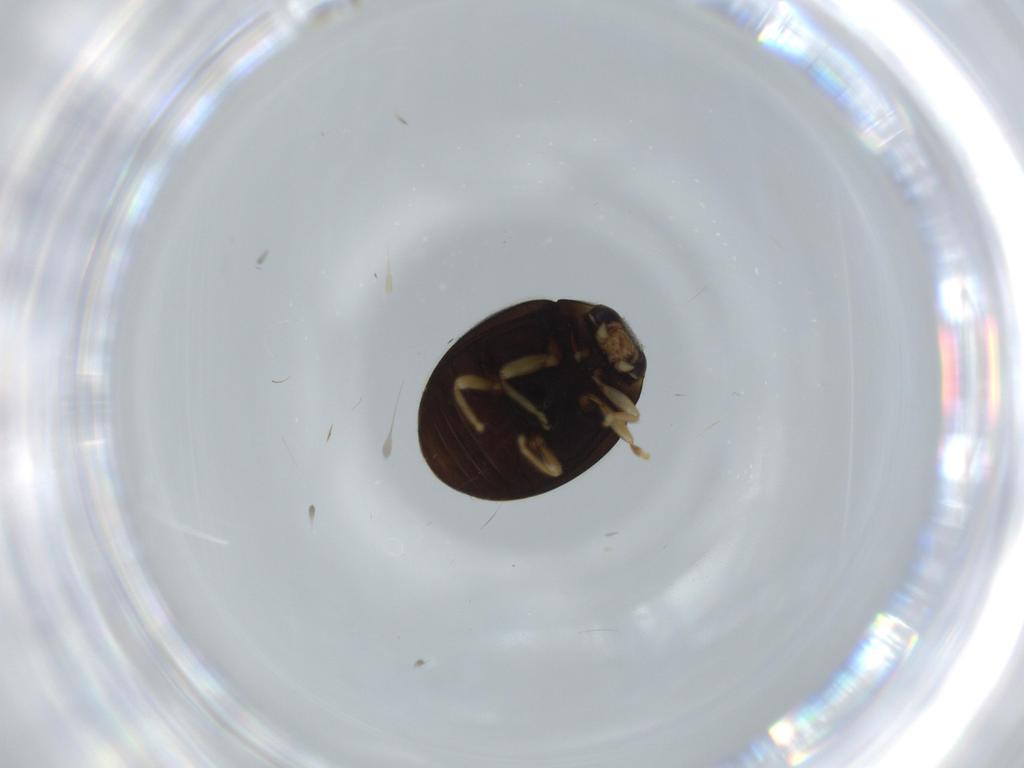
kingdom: Animalia
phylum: Arthropoda
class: Insecta
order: Coleoptera
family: Coccinellidae
